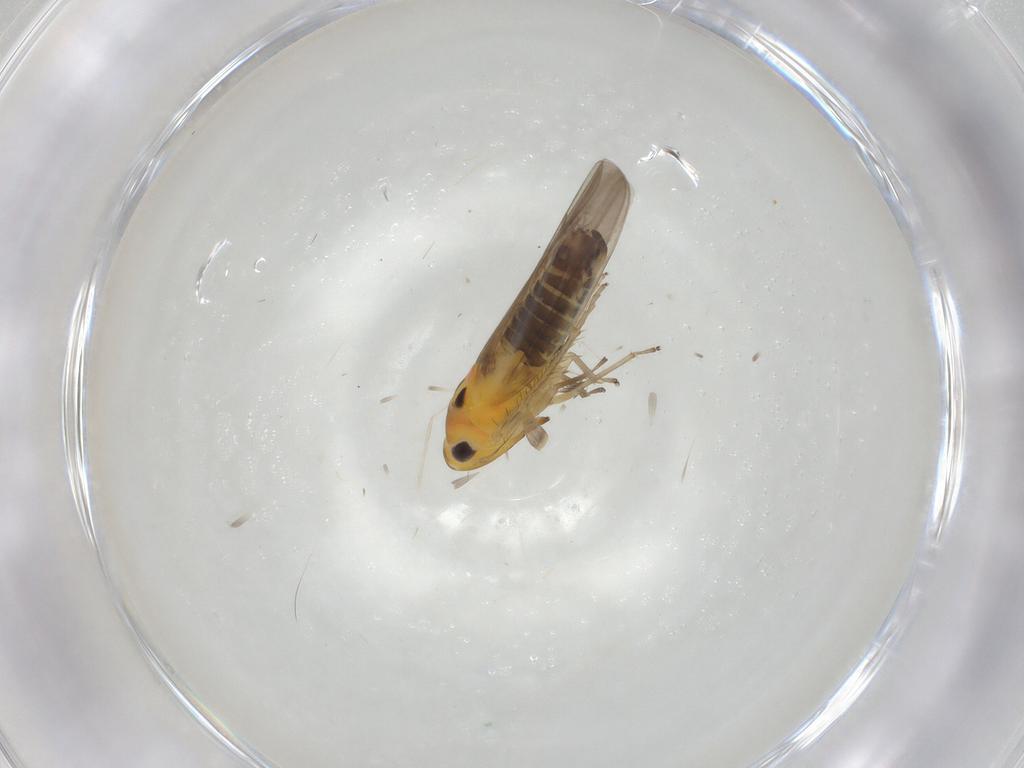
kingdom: Animalia
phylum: Arthropoda
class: Insecta
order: Hemiptera
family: Cicadellidae
